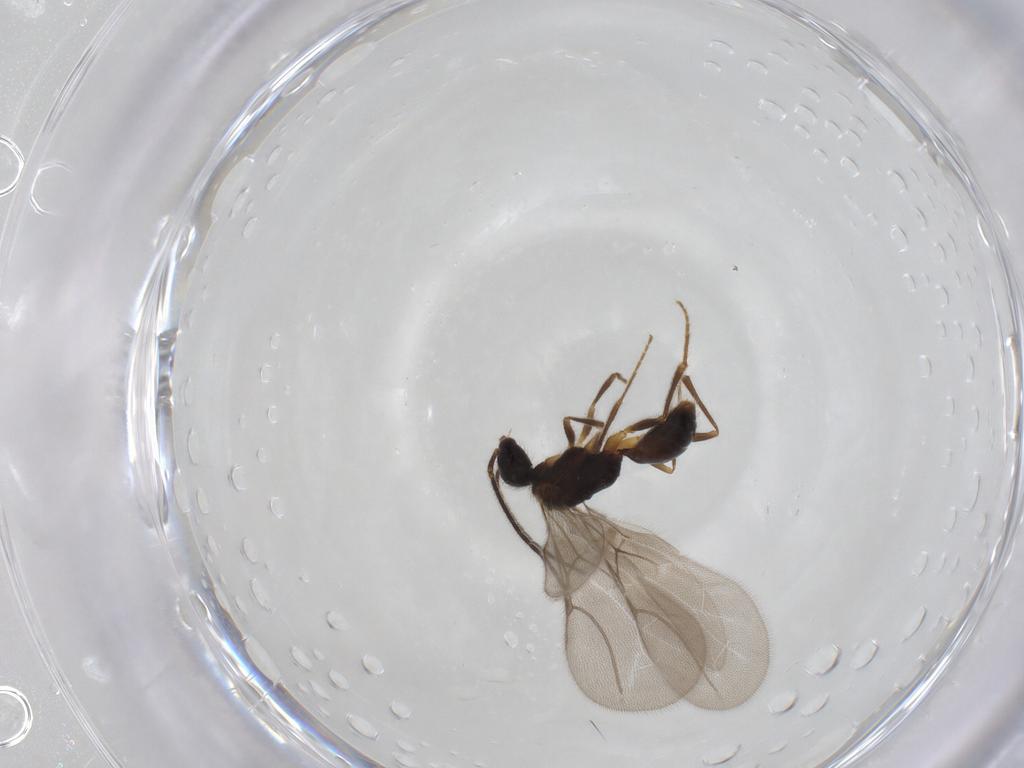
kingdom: Animalia
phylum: Arthropoda
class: Insecta
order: Hymenoptera
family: Bethylidae
